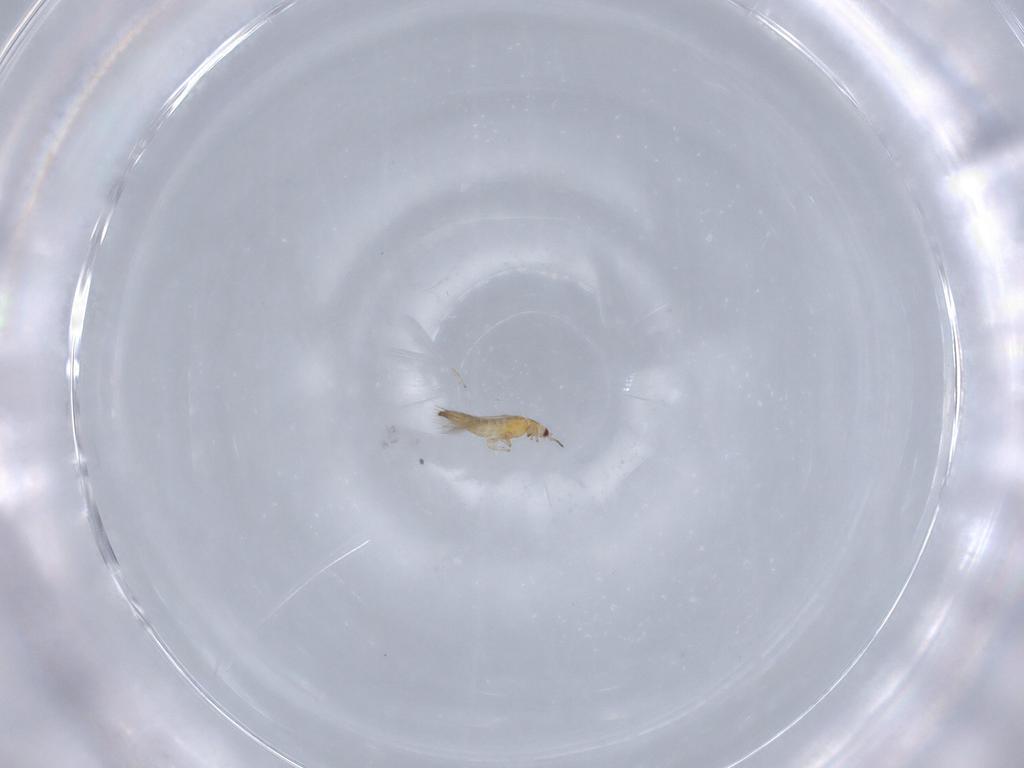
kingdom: Animalia
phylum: Arthropoda
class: Insecta
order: Thysanoptera
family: Thripidae
